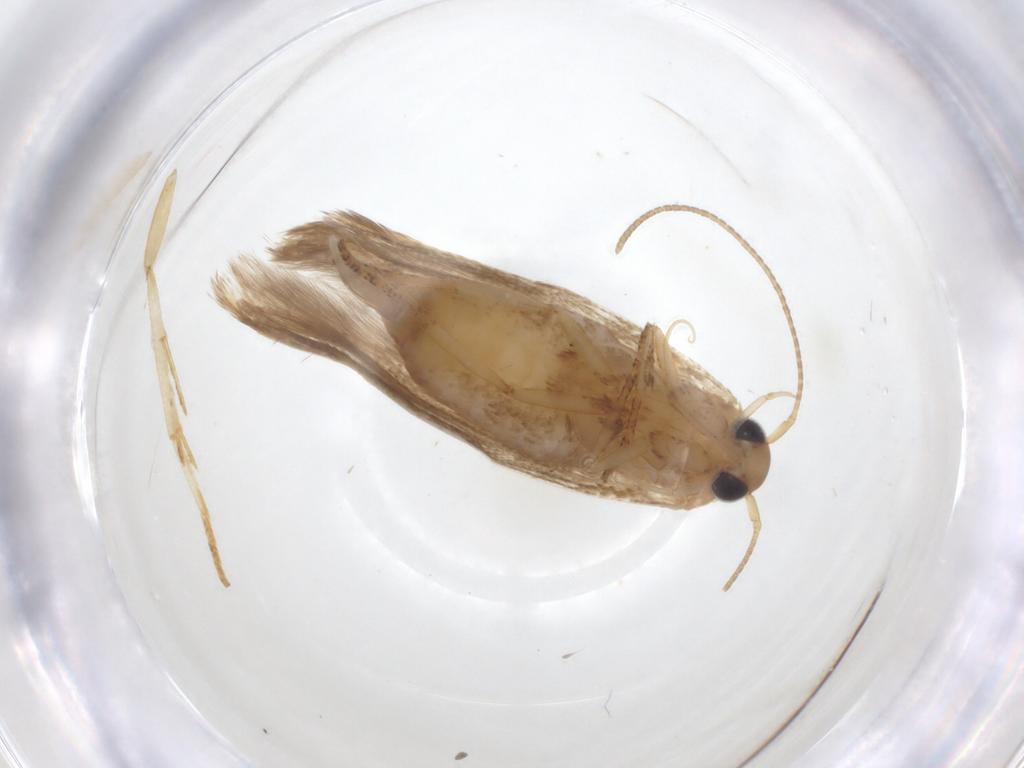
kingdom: Animalia
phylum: Arthropoda
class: Insecta
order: Lepidoptera
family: Blastobasidae
